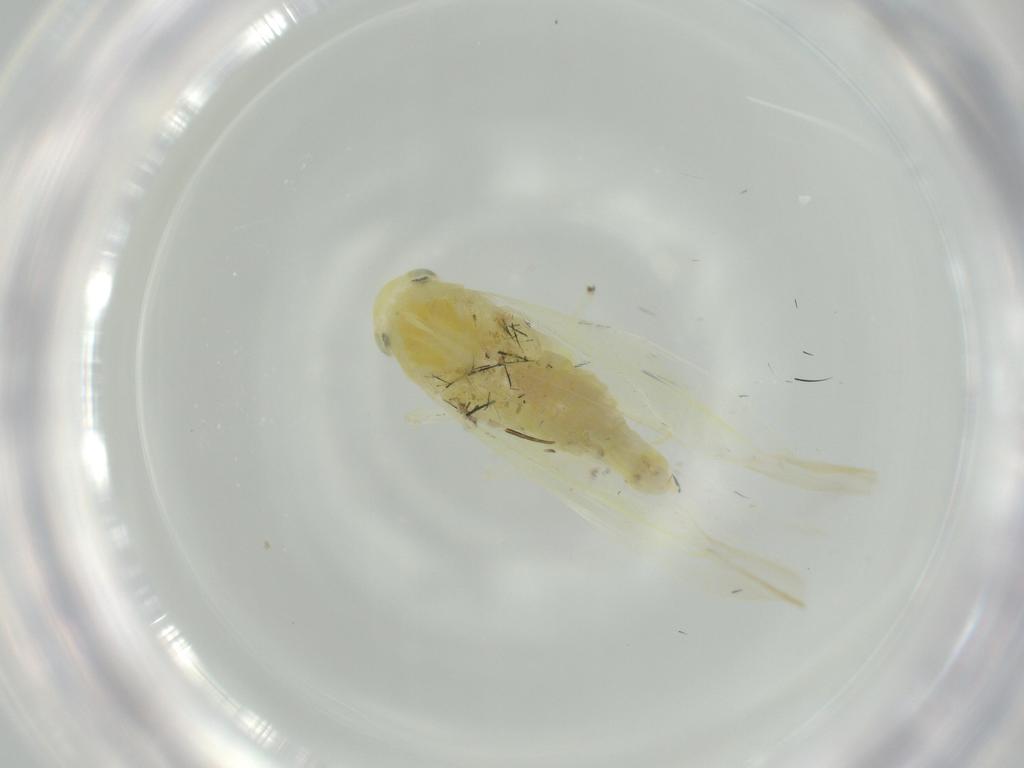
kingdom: Animalia
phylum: Arthropoda
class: Insecta
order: Hemiptera
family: Cicadellidae
